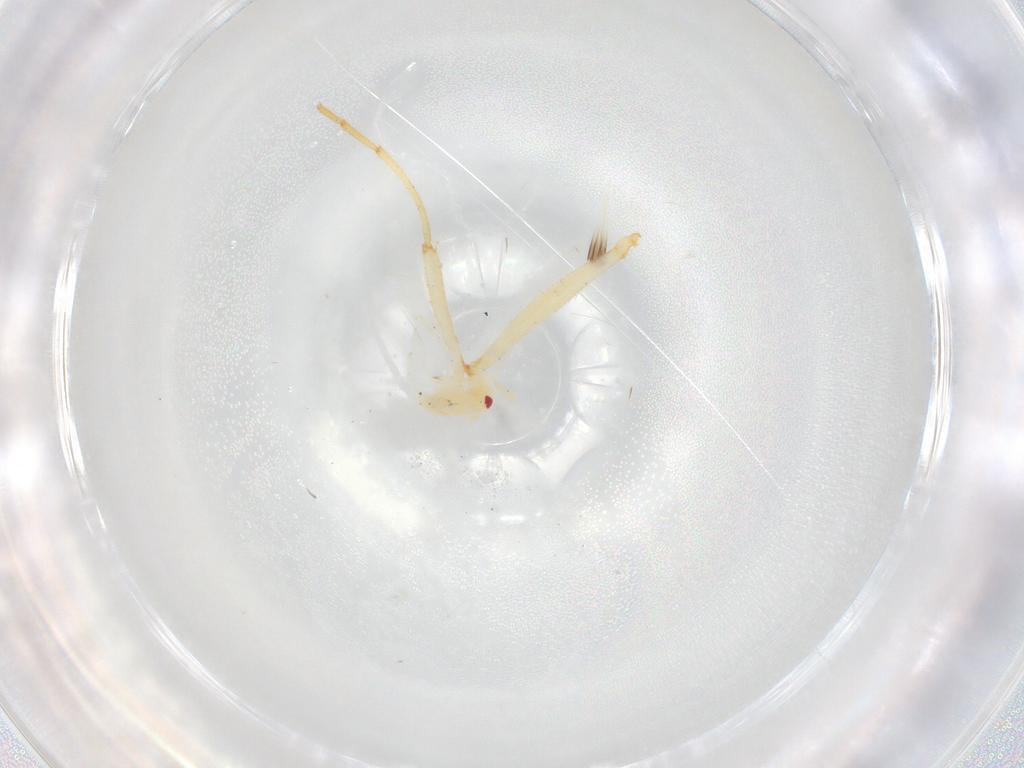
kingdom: Animalia
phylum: Arthropoda
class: Insecta
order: Hymenoptera
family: Formicidae
